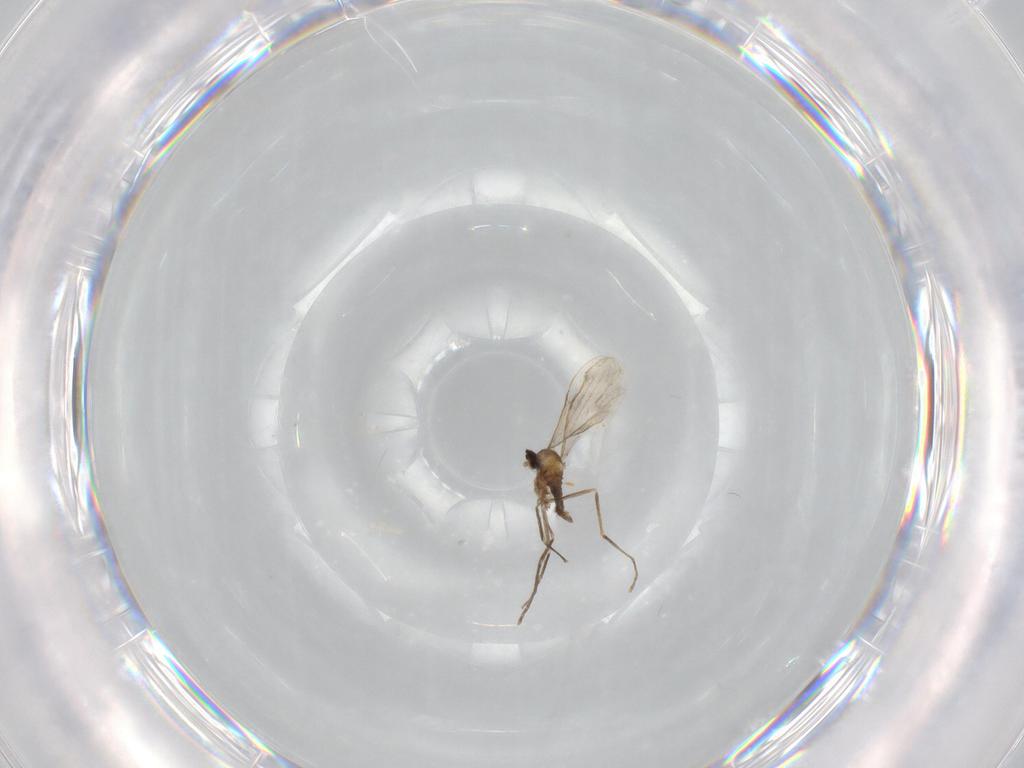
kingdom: Animalia
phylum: Arthropoda
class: Insecta
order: Diptera
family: Cecidomyiidae
